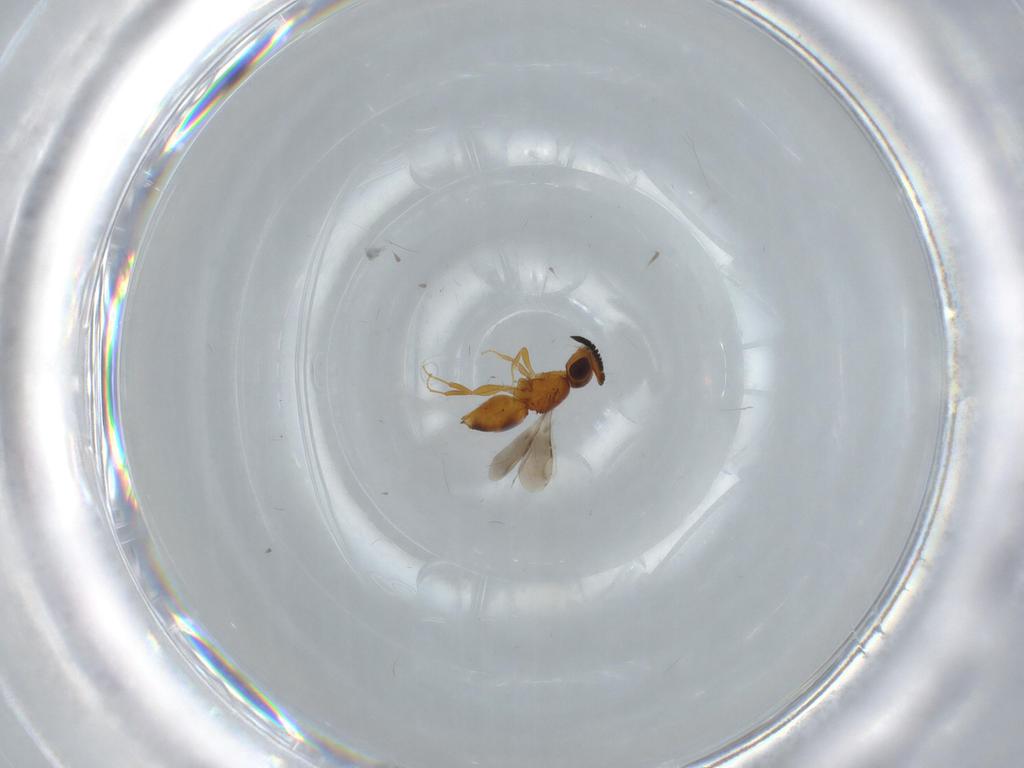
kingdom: Animalia
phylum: Arthropoda
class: Insecta
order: Hymenoptera
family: Ceraphronidae
